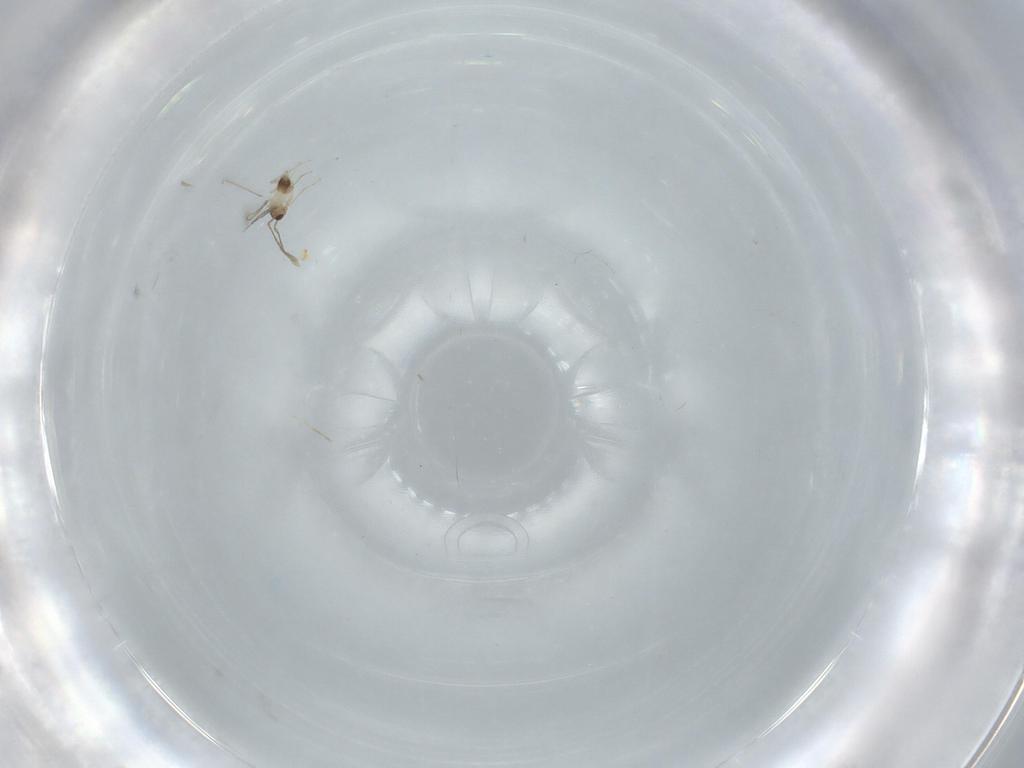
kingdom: Animalia
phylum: Arthropoda
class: Insecta
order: Hymenoptera
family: Mymaridae
